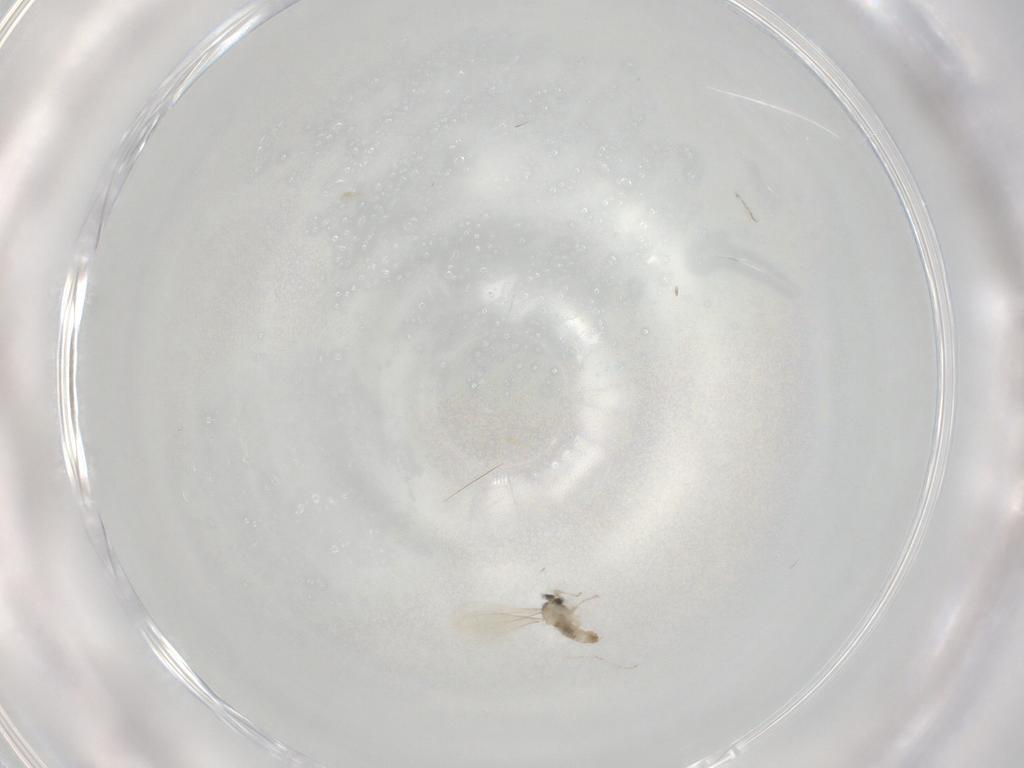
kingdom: Animalia
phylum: Arthropoda
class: Insecta
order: Diptera
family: Cecidomyiidae
